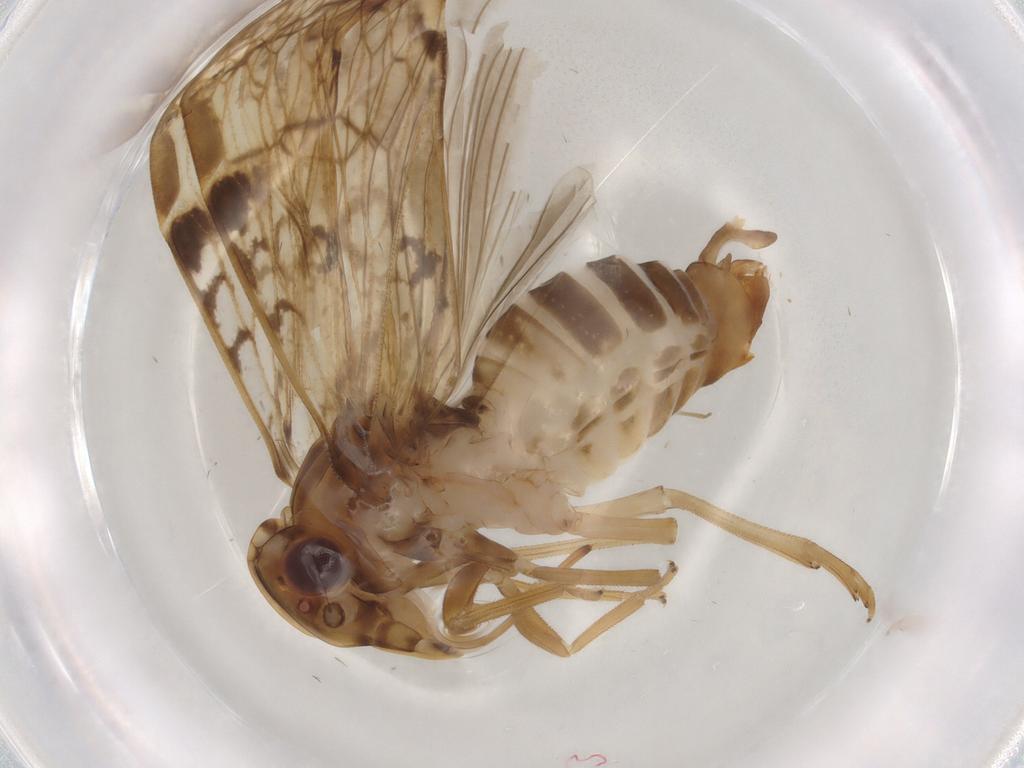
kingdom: Animalia
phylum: Arthropoda
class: Insecta
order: Hemiptera
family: Cixiidae
